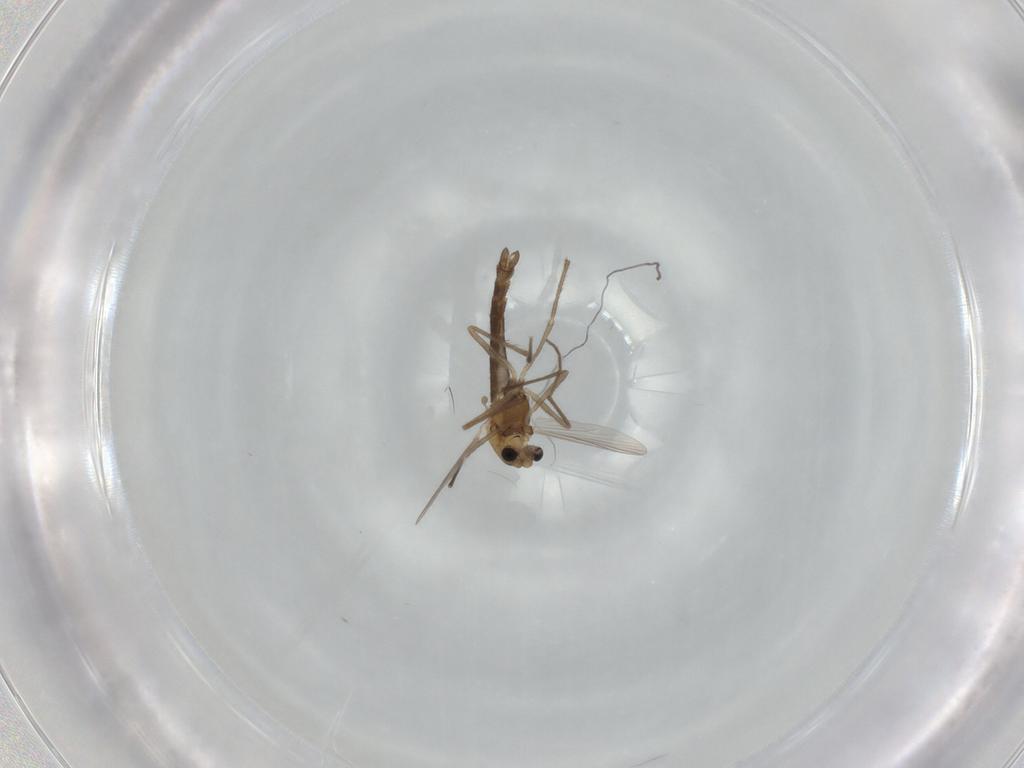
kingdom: Animalia
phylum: Arthropoda
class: Insecta
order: Diptera
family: Chironomidae
